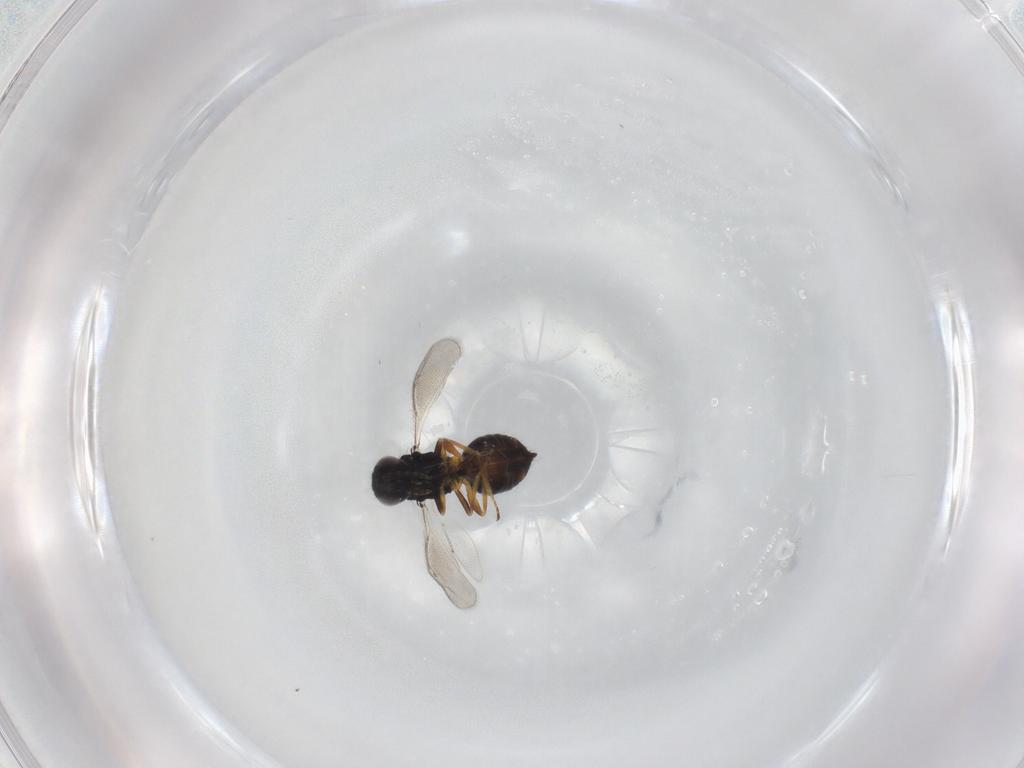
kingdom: Animalia
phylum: Arthropoda
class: Insecta
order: Hymenoptera
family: Eulophidae
